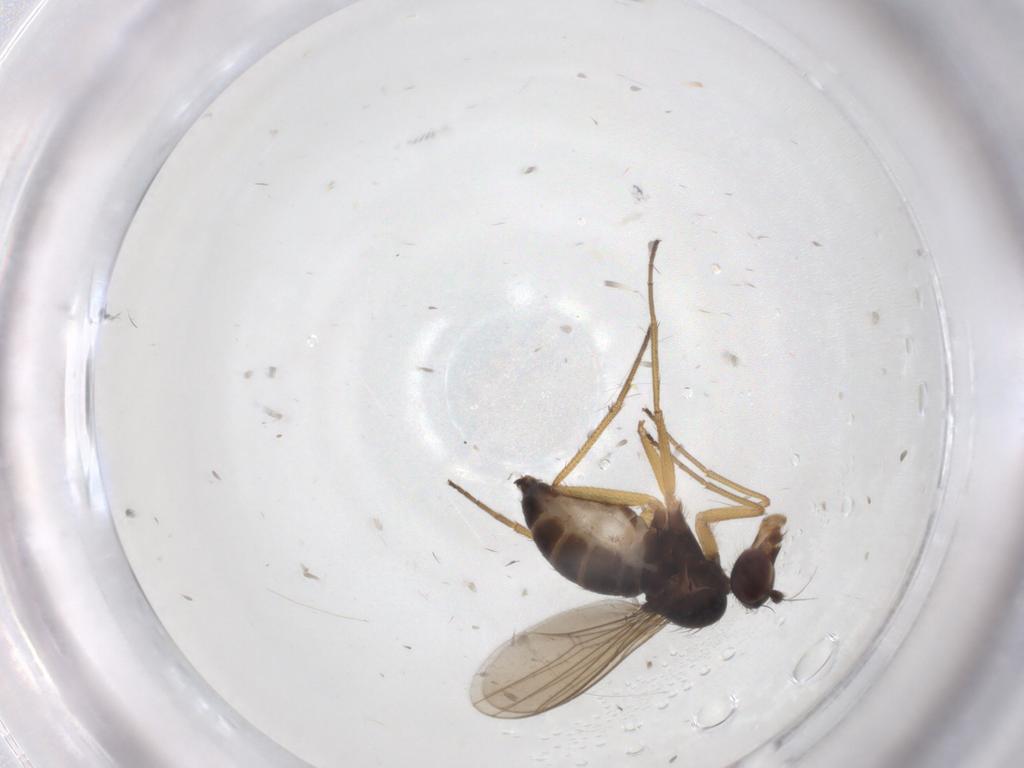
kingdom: Animalia
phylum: Arthropoda
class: Insecta
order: Diptera
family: Dolichopodidae
